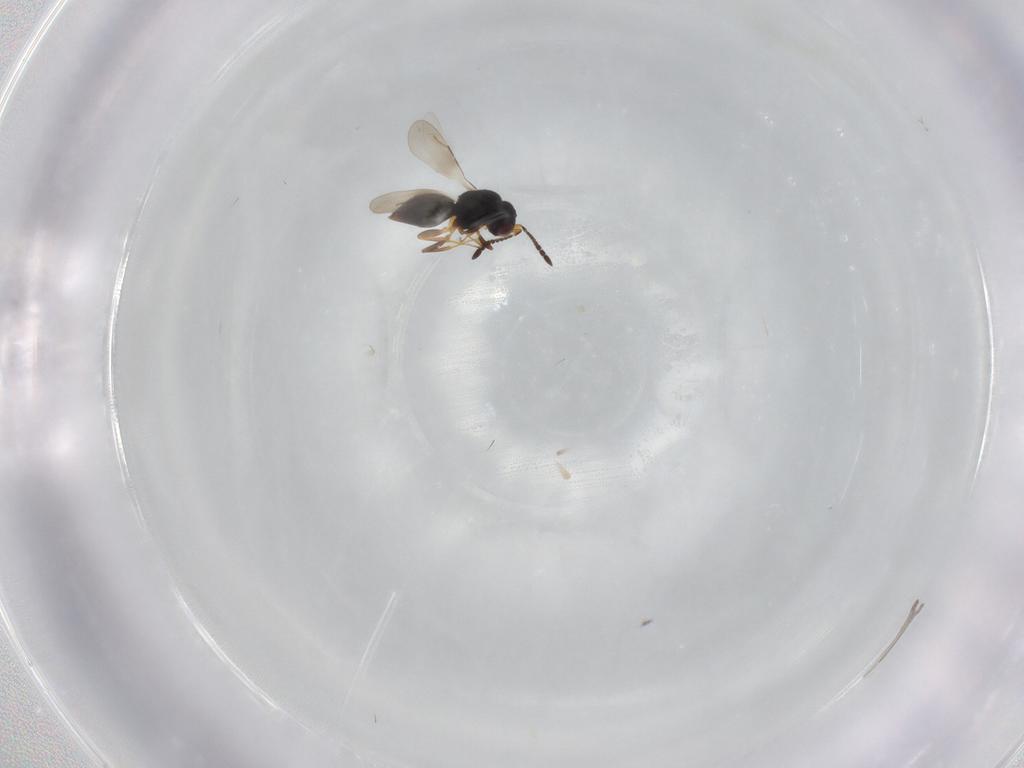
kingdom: Animalia
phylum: Arthropoda
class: Insecta
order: Hymenoptera
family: Ceraphronidae
